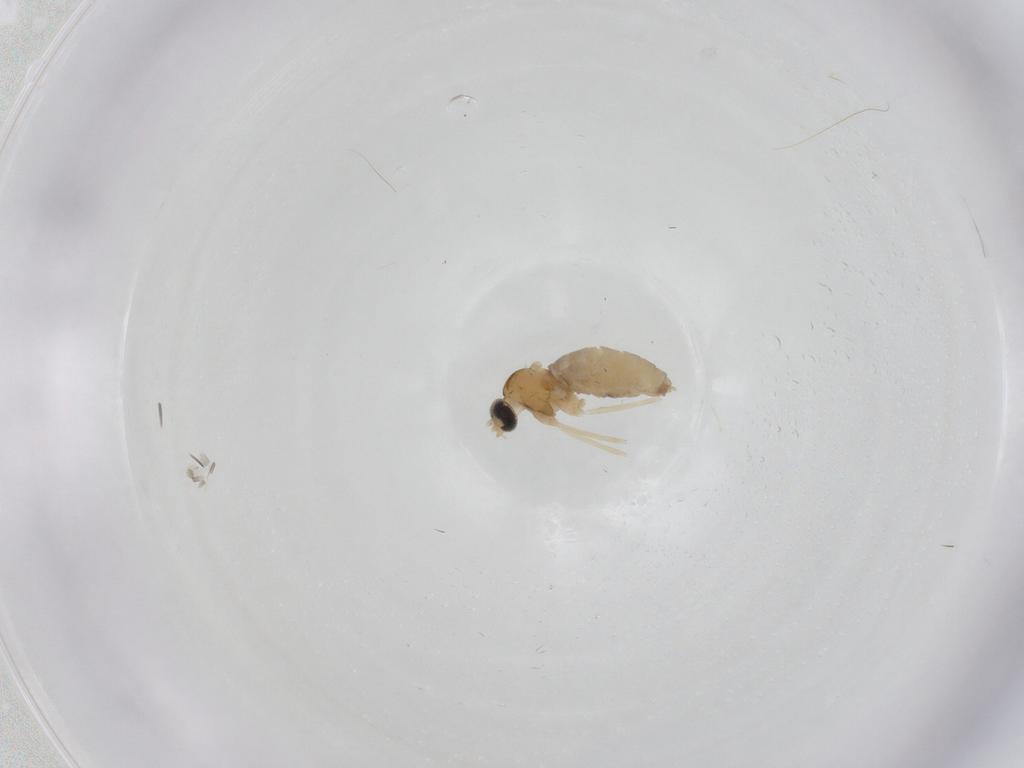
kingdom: Animalia
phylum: Arthropoda
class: Insecta
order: Diptera
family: Cecidomyiidae
